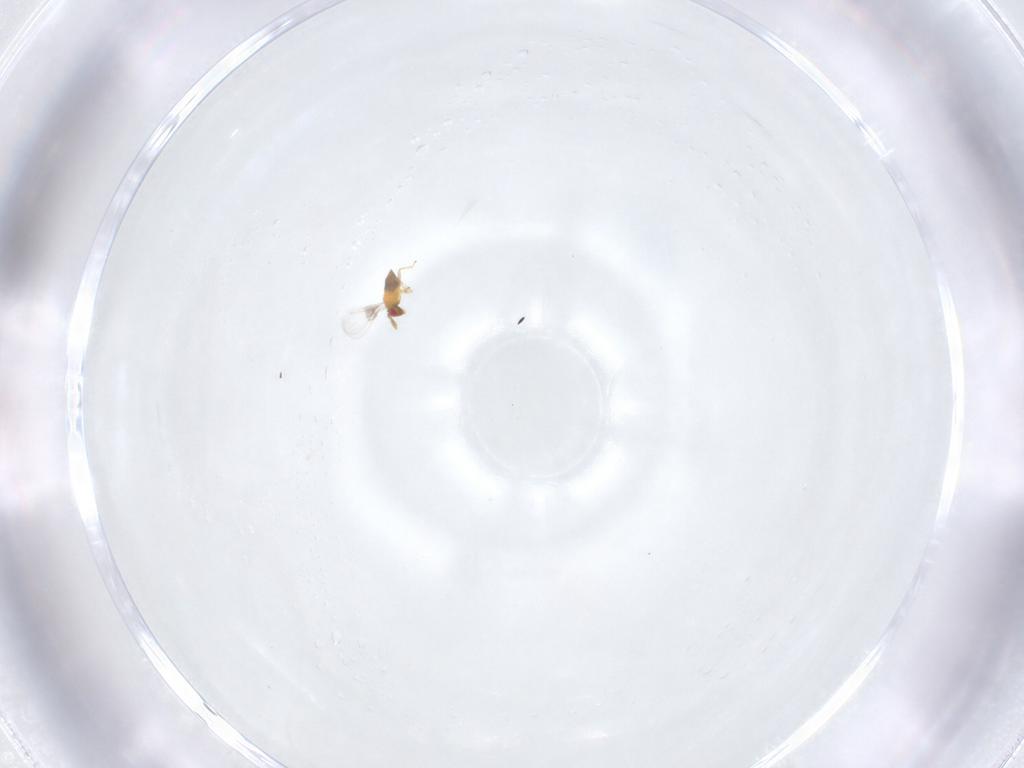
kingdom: Animalia
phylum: Arthropoda
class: Insecta
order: Hymenoptera
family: Trichogrammatidae
